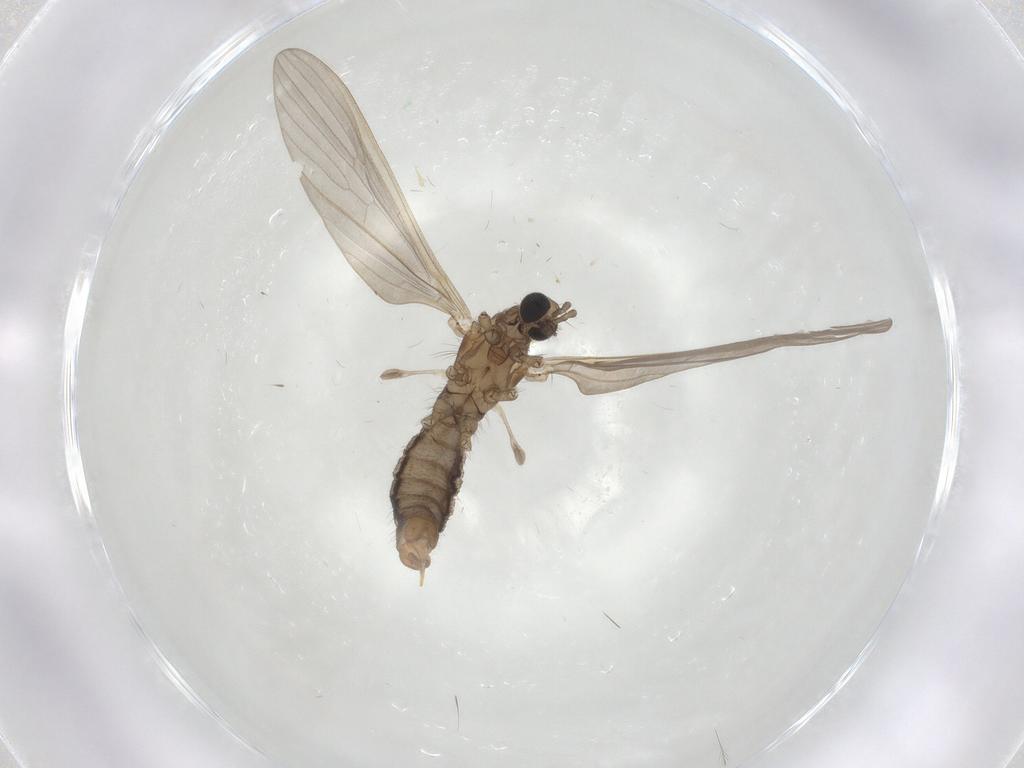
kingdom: Animalia
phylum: Arthropoda
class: Insecta
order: Diptera
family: Limoniidae
